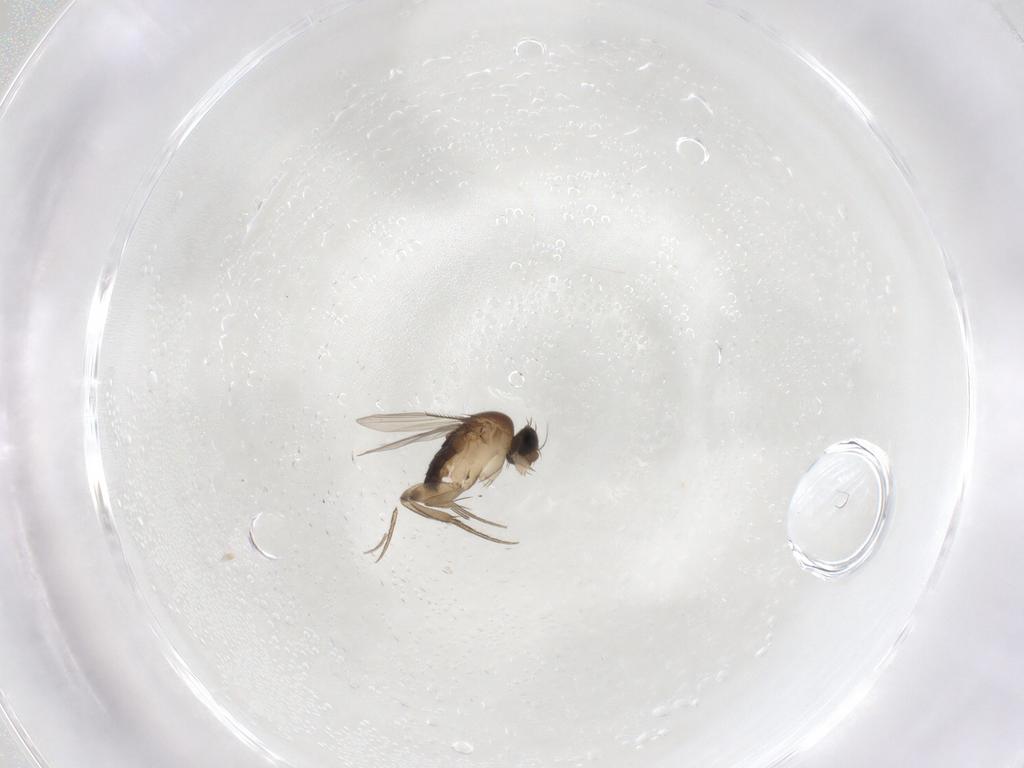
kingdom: Animalia
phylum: Arthropoda
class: Insecta
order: Diptera
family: Phoridae
